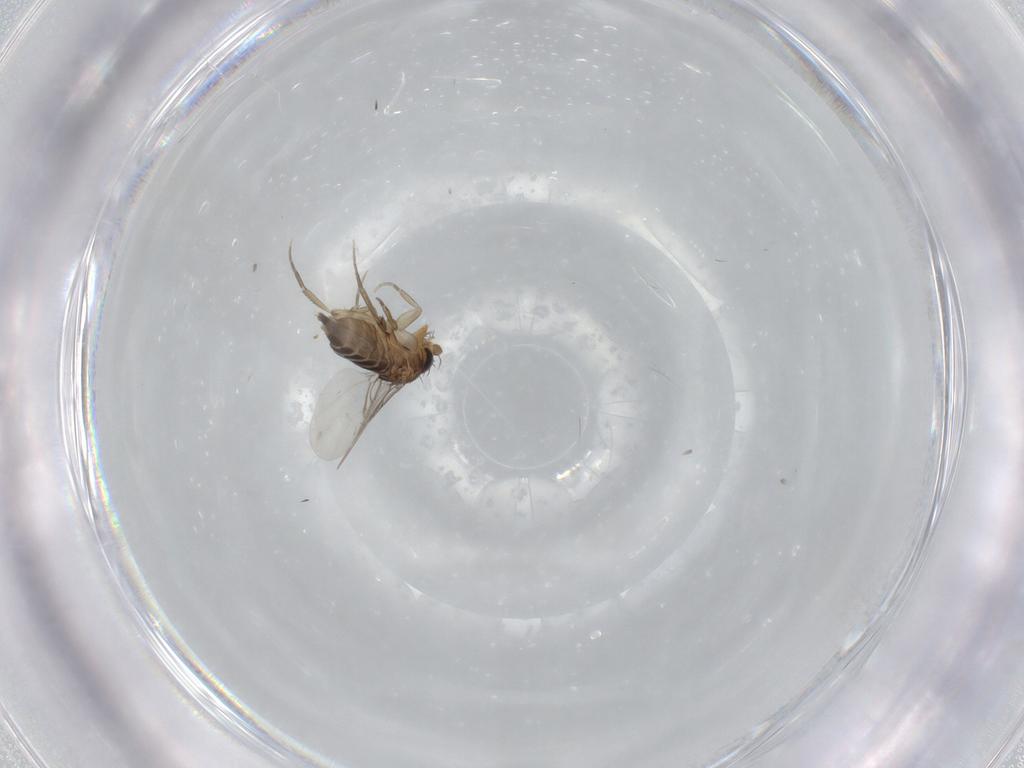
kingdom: Animalia
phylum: Arthropoda
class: Insecta
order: Diptera
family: Phoridae
